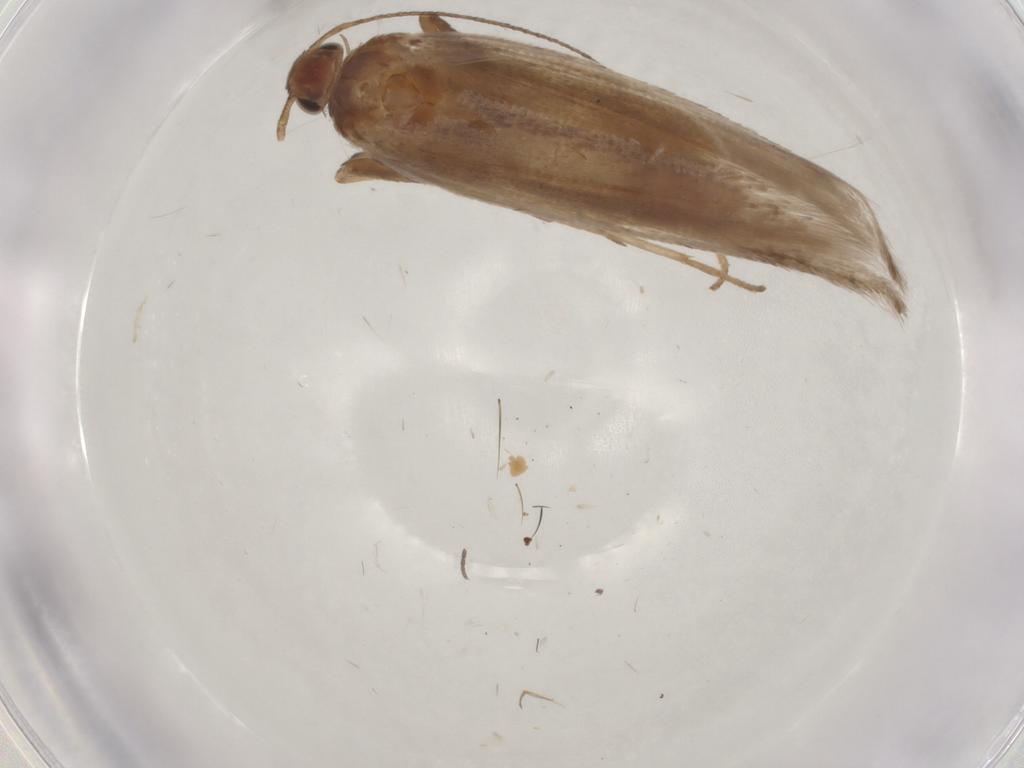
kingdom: Animalia
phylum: Arthropoda
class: Insecta
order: Lepidoptera
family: Gelechiidae
